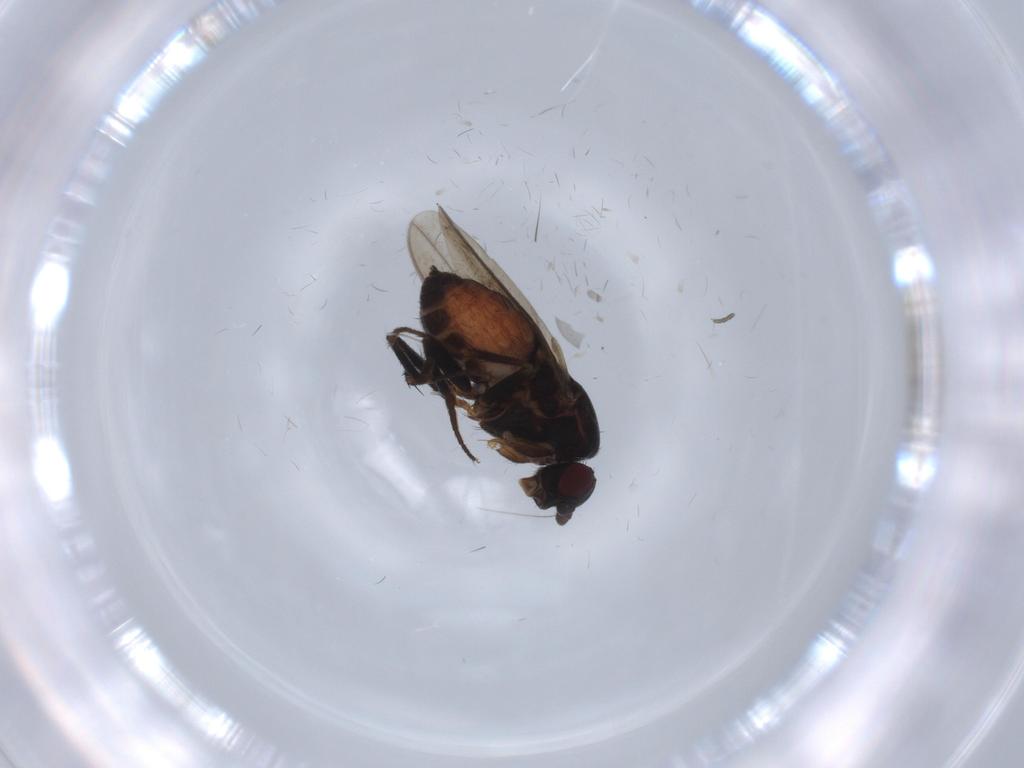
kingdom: Animalia
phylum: Arthropoda
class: Insecta
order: Diptera
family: Sphaeroceridae
